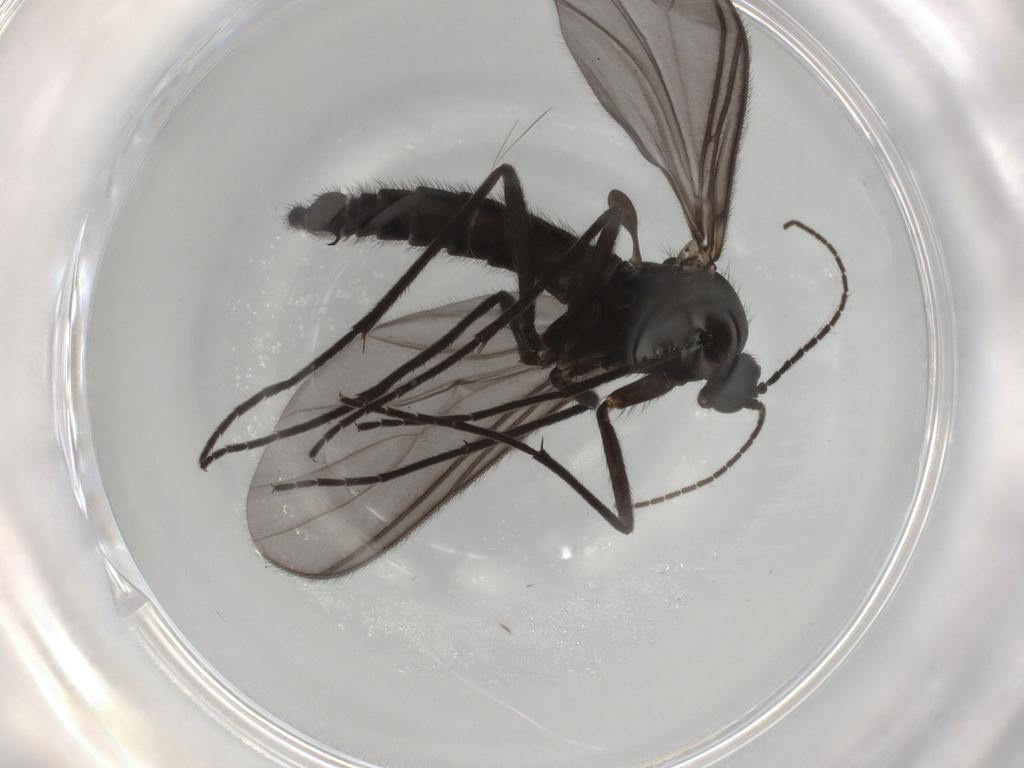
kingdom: Animalia
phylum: Arthropoda
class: Insecta
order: Diptera
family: Sciaridae
